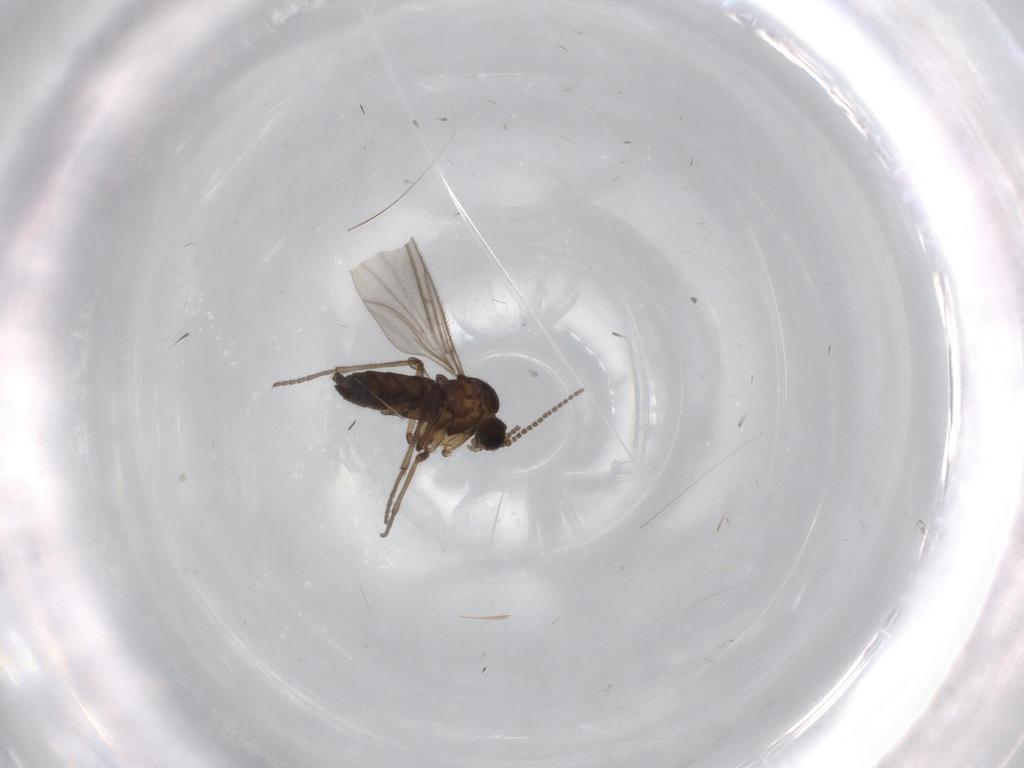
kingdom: Animalia
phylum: Arthropoda
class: Insecta
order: Diptera
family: Sciaridae
